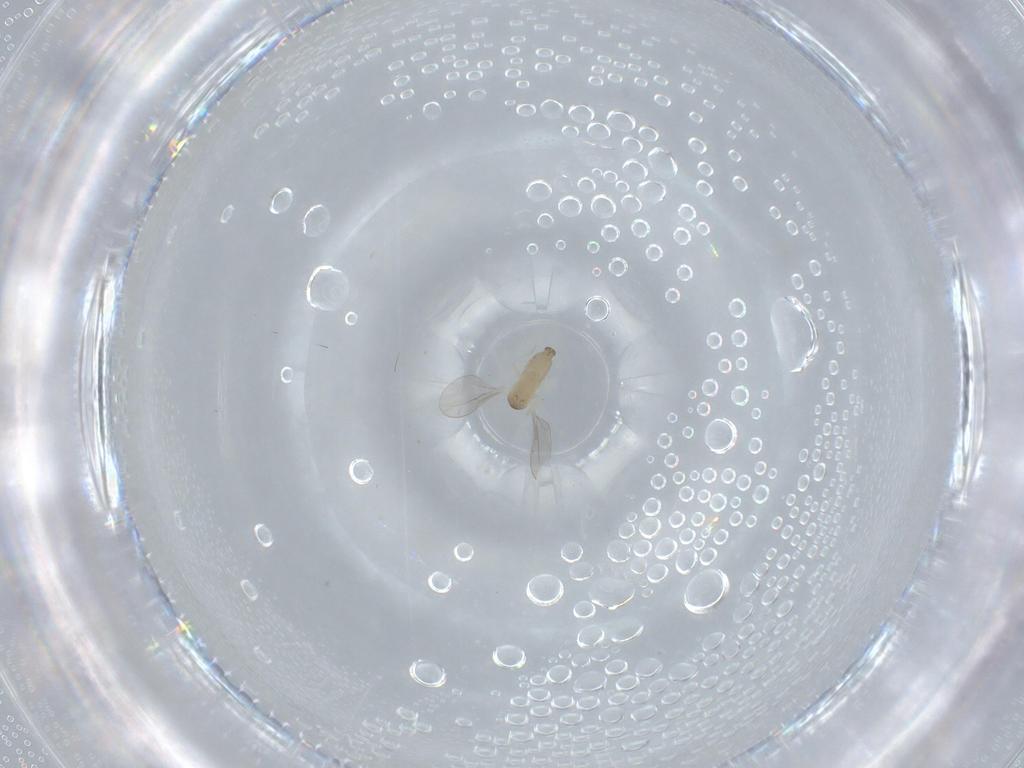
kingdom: Animalia
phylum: Arthropoda
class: Insecta
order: Diptera
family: Cecidomyiidae
